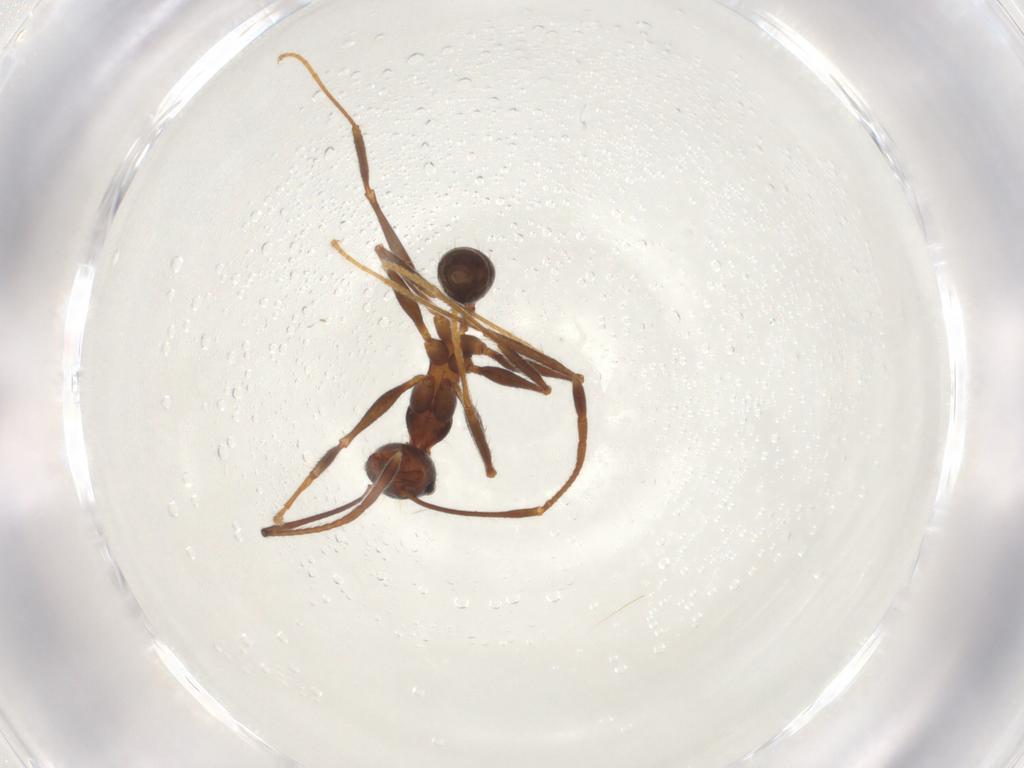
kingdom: Animalia
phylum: Arthropoda
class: Insecta
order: Hymenoptera
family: Formicidae
